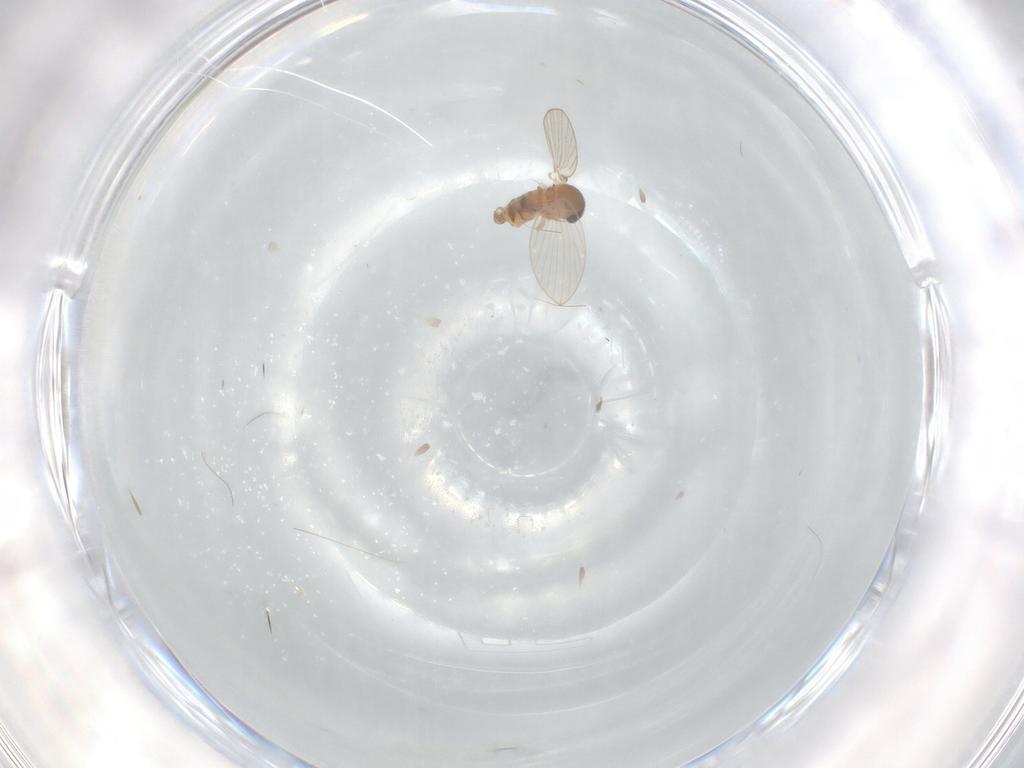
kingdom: Animalia
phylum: Arthropoda
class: Insecta
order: Diptera
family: Psychodidae
